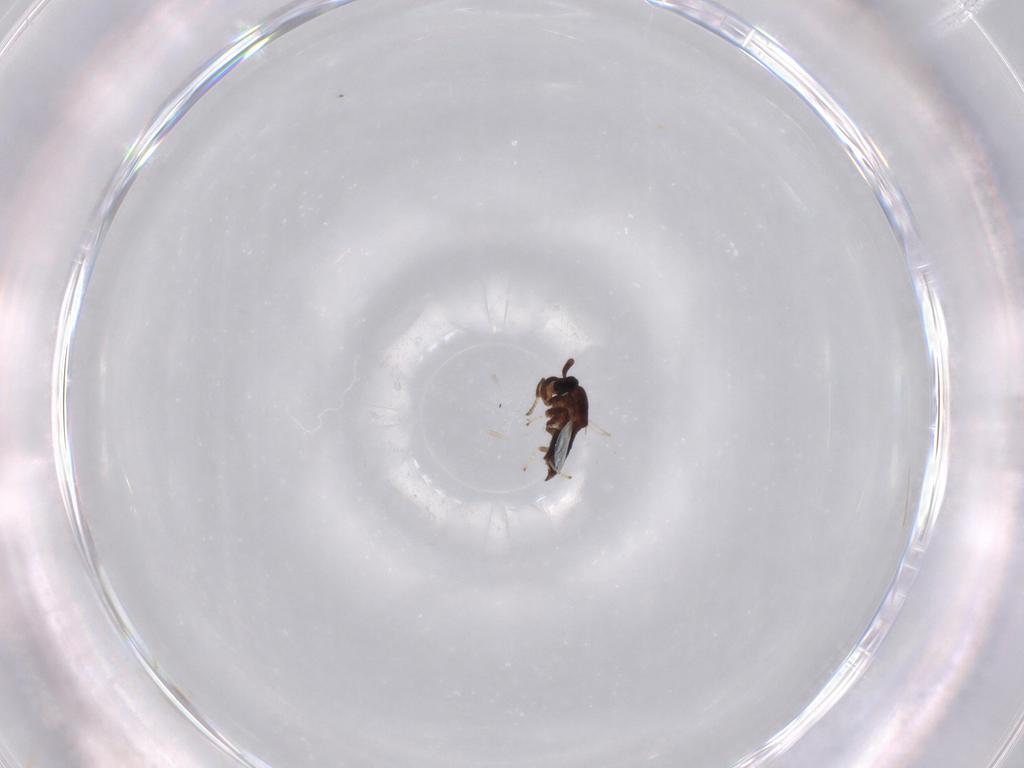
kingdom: Animalia
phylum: Arthropoda
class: Insecta
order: Diptera
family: Scatopsidae
